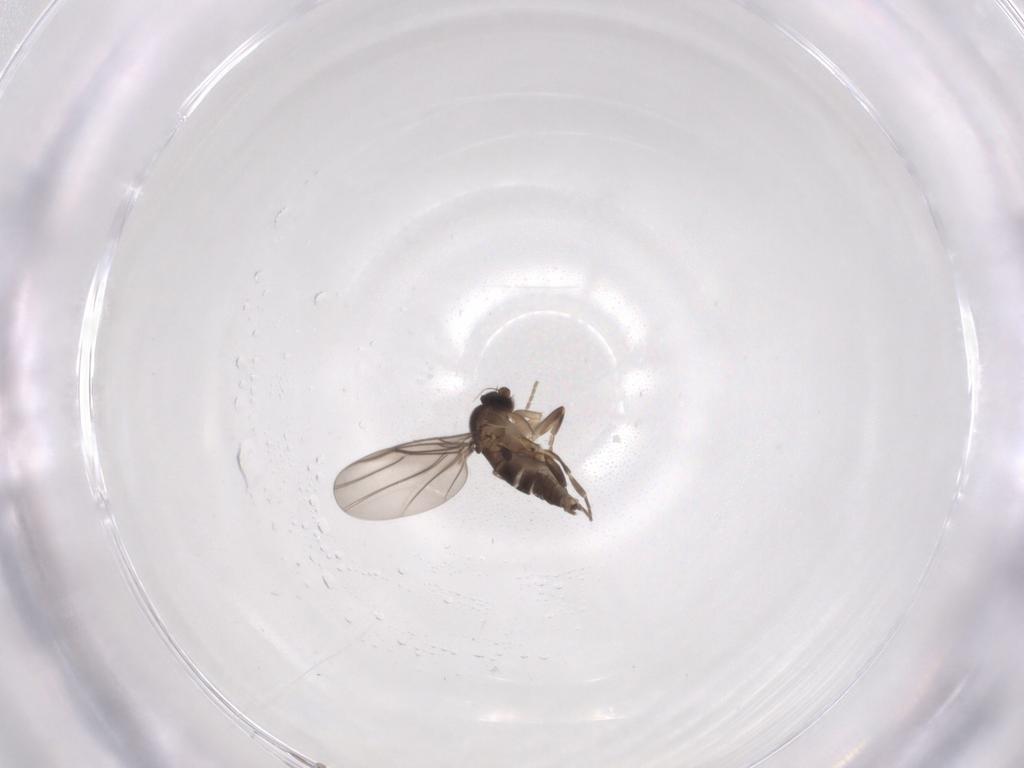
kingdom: Animalia
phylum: Arthropoda
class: Insecta
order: Diptera
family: Phoridae
